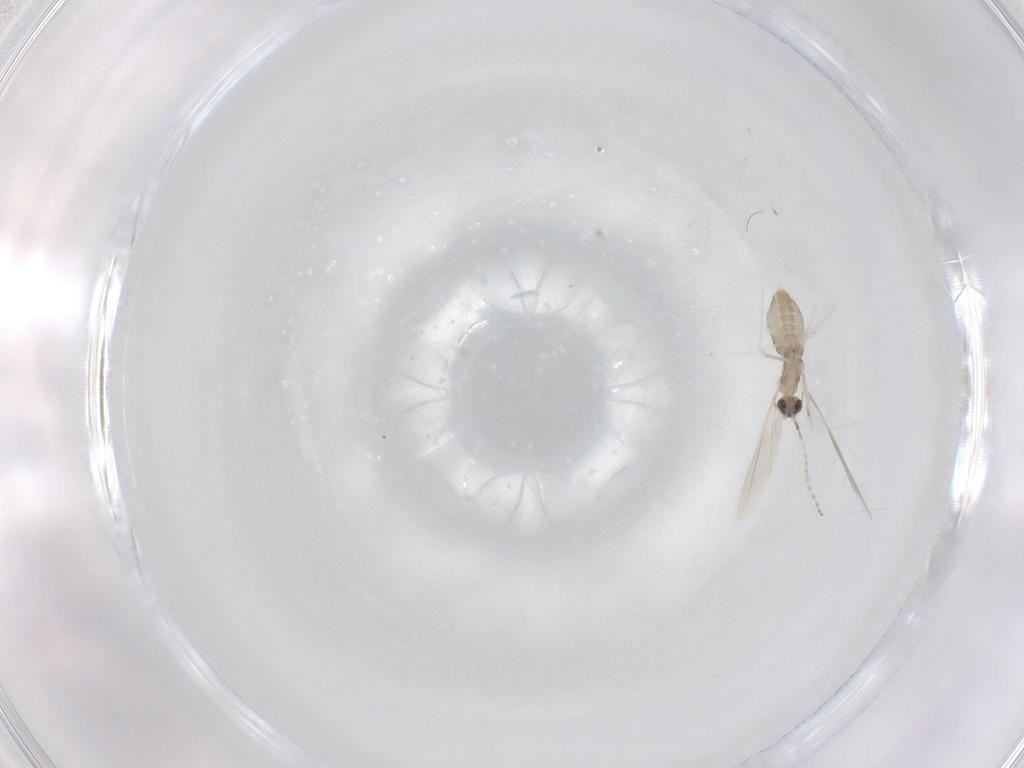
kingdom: Animalia
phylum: Arthropoda
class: Insecta
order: Diptera
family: Cecidomyiidae
